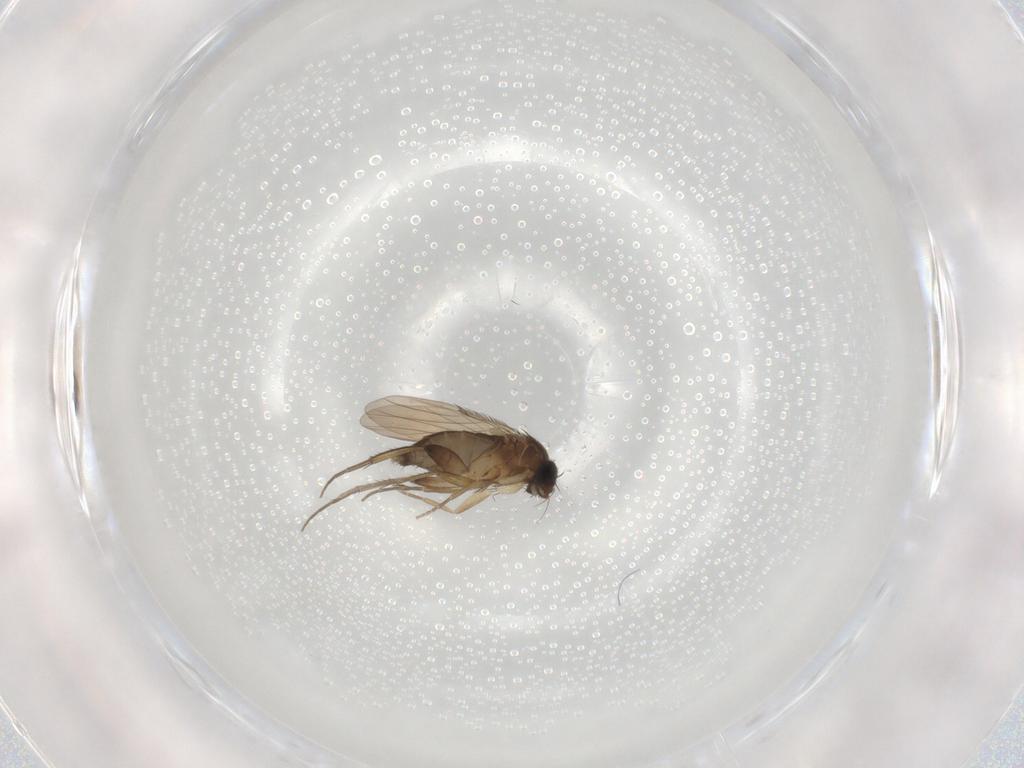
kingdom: Animalia
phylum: Arthropoda
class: Insecta
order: Diptera
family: Phoridae
